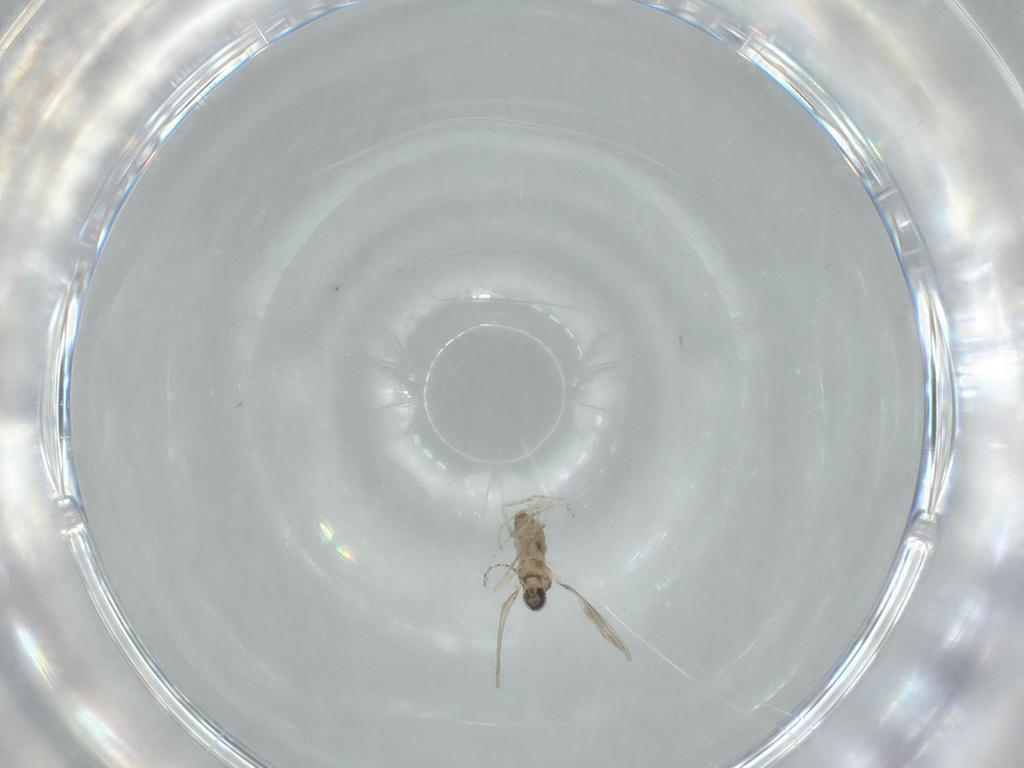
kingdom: Animalia
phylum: Arthropoda
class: Insecta
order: Diptera
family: Cecidomyiidae
